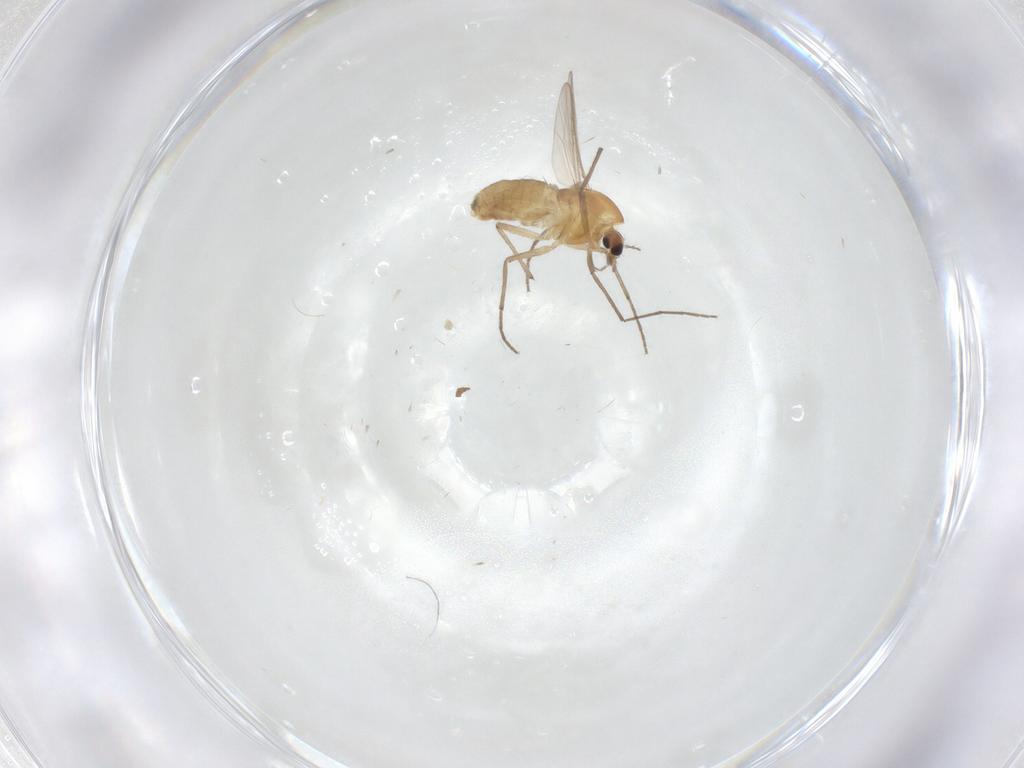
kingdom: Animalia
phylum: Arthropoda
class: Insecta
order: Diptera
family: Chironomidae
